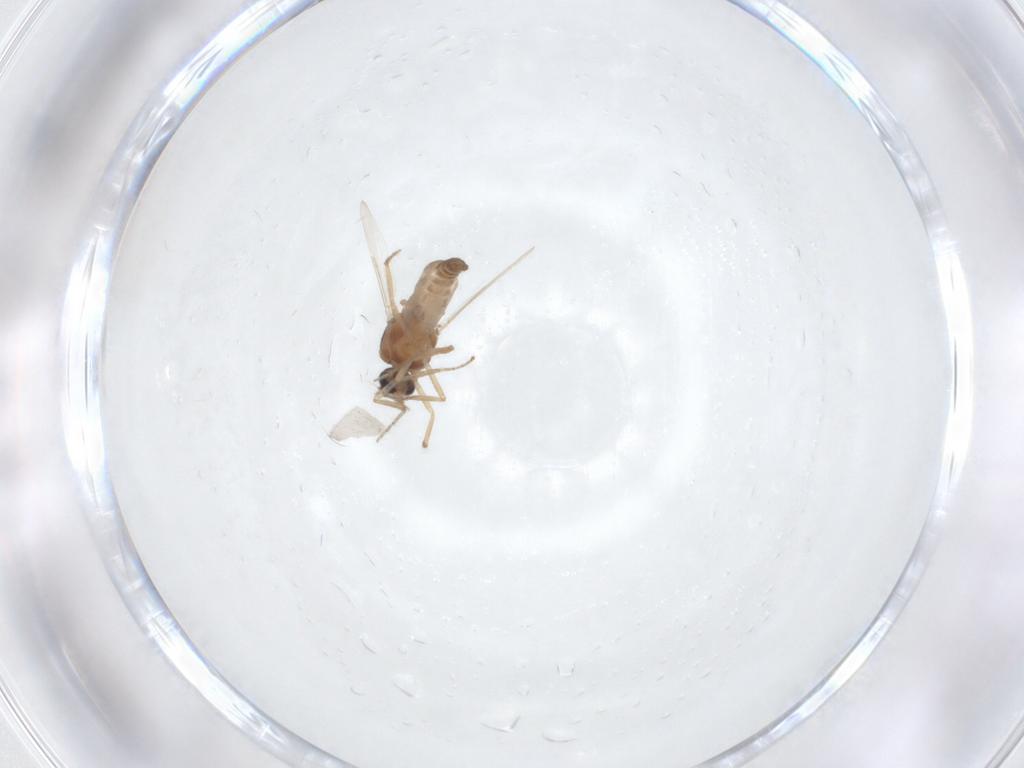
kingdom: Animalia
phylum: Arthropoda
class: Insecta
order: Diptera
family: Ceratopogonidae
